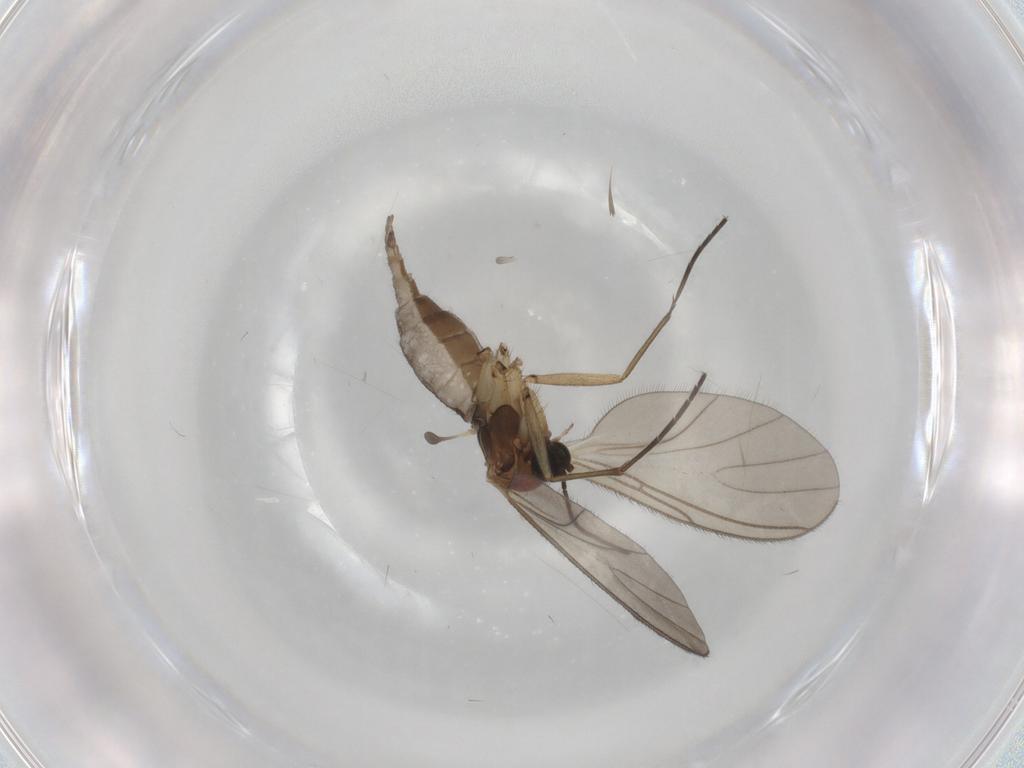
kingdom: Animalia
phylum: Arthropoda
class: Insecta
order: Diptera
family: Sciaridae
